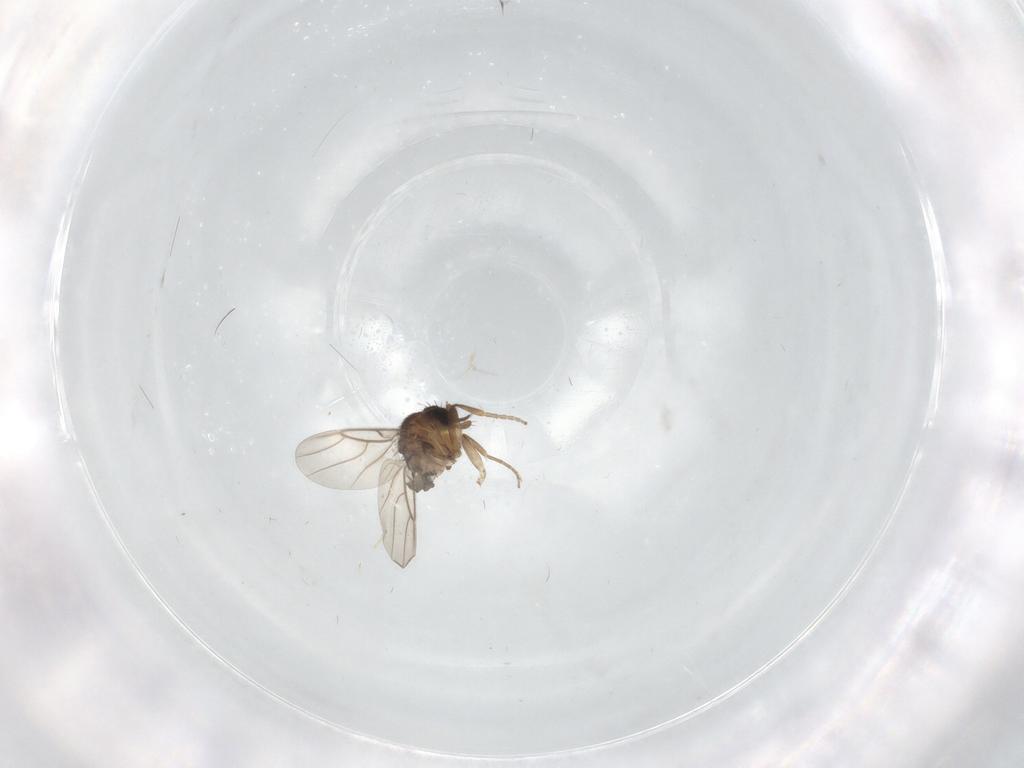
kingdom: Animalia
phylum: Arthropoda
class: Insecta
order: Diptera
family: Phoridae
